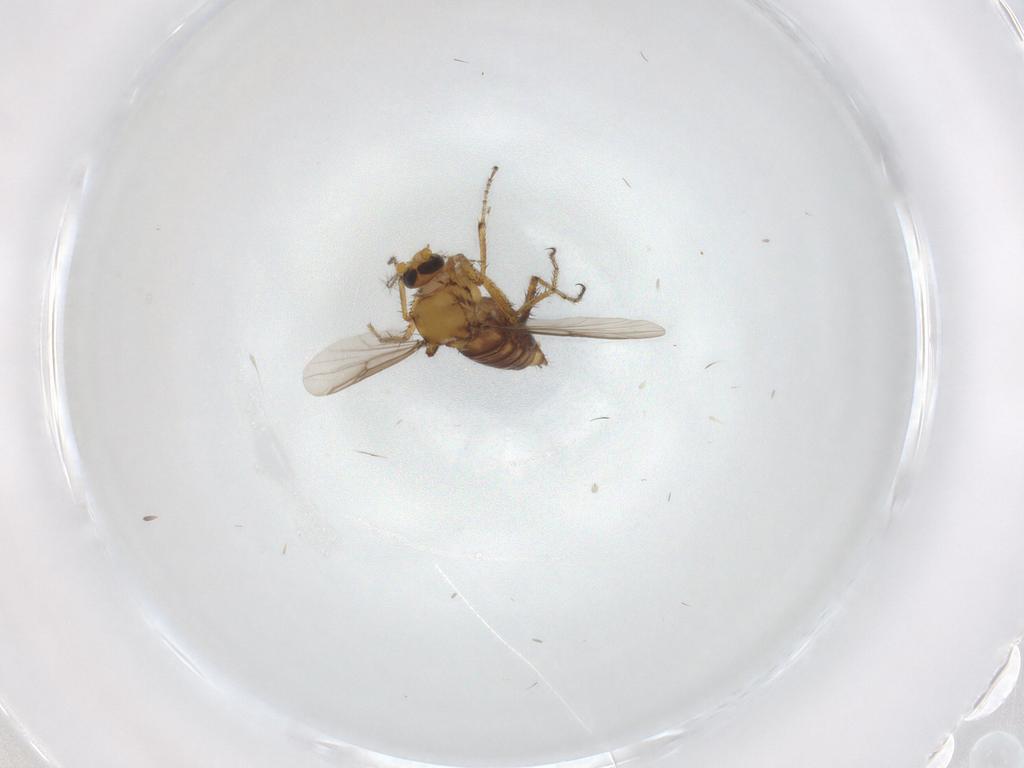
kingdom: Animalia
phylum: Arthropoda
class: Insecta
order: Diptera
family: Ceratopogonidae
